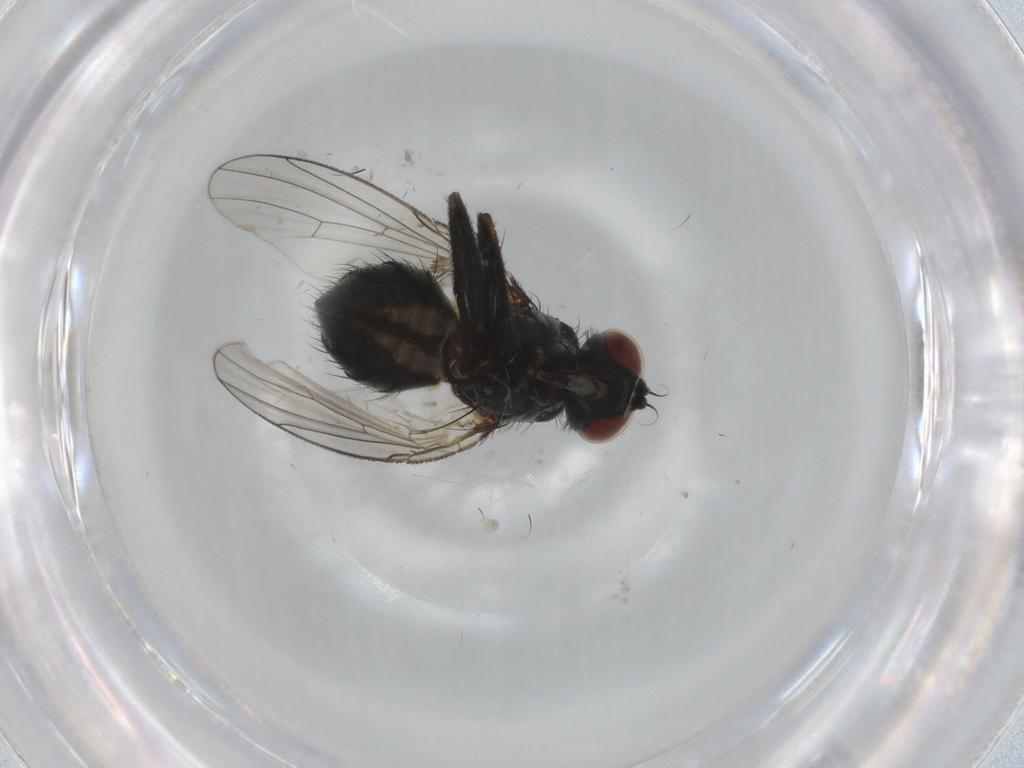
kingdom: Animalia
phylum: Arthropoda
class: Insecta
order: Diptera
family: Muscidae
